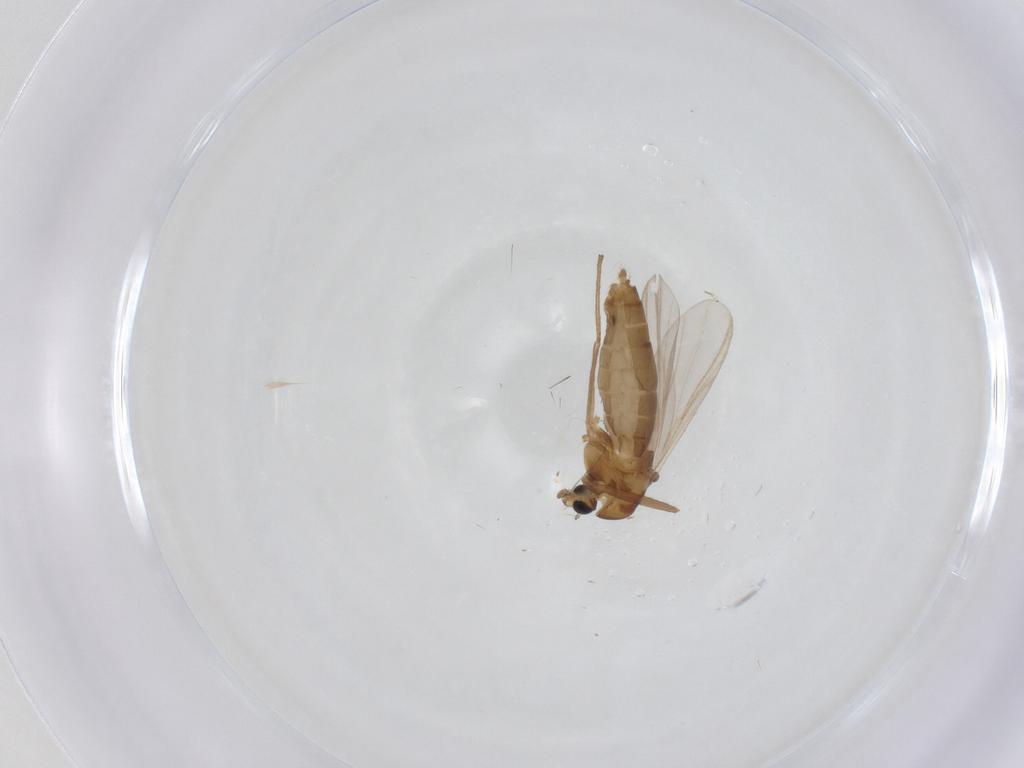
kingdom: Animalia
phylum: Arthropoda
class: Insecta
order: Diptera
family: Chironomidae
